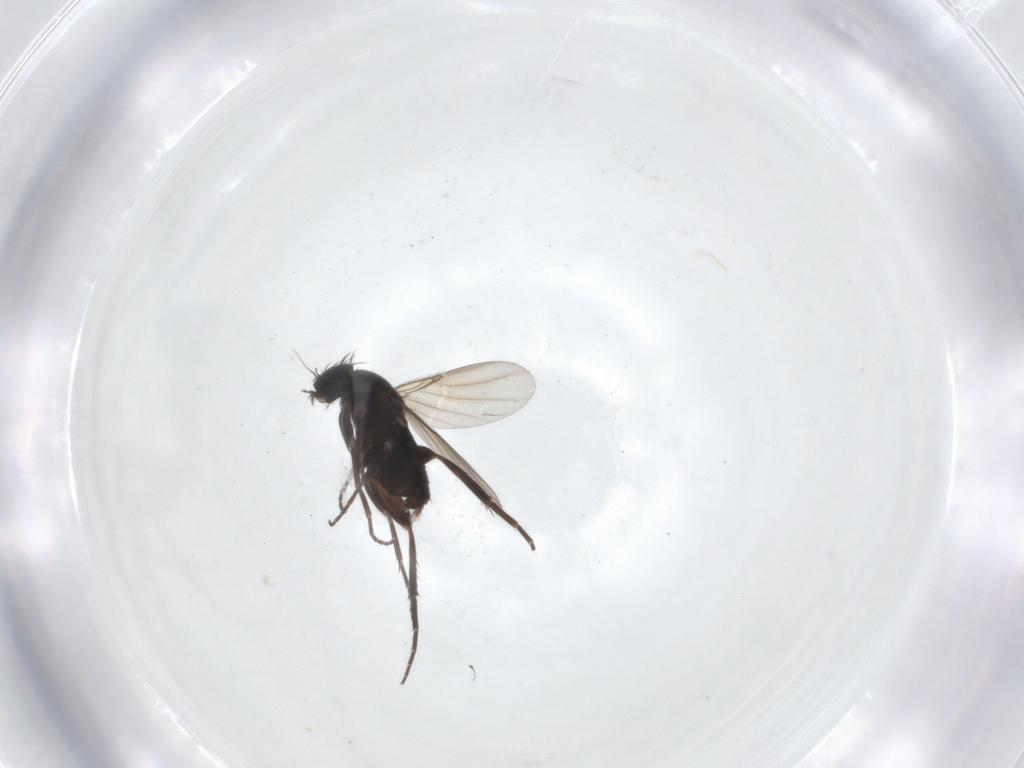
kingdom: Animalia
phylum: Arthropoda
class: Insecta
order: Diptera
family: Phoridae
